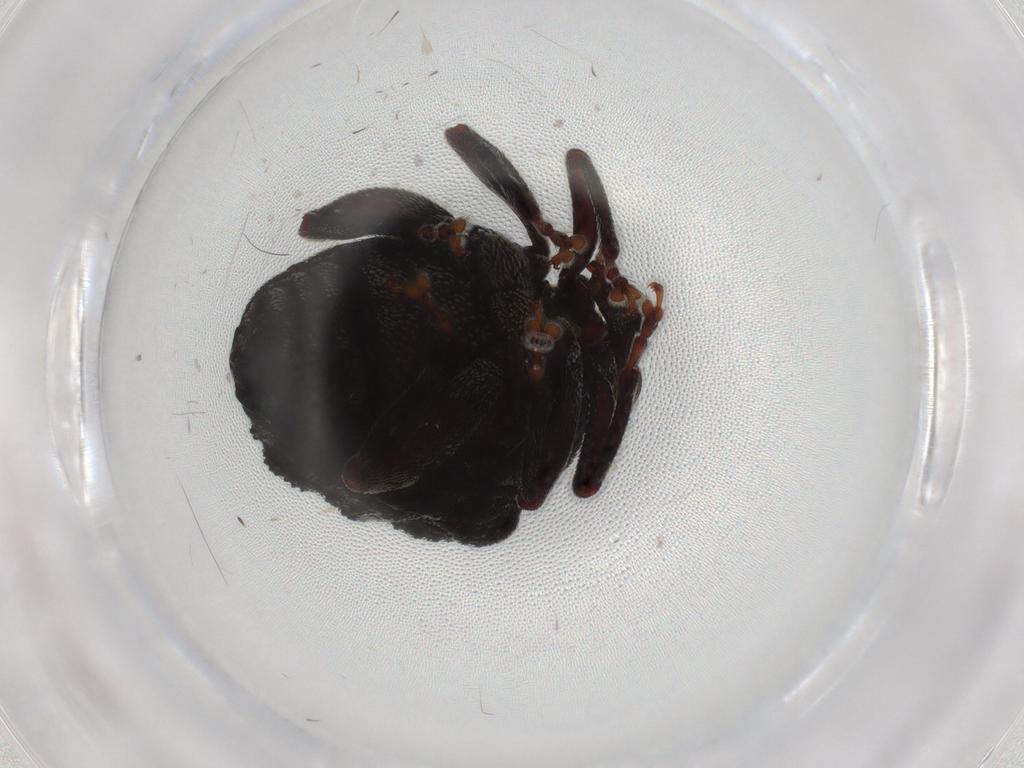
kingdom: Animalia
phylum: Arthropoda
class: Insecta
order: Coleoptera
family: Curculionidae
